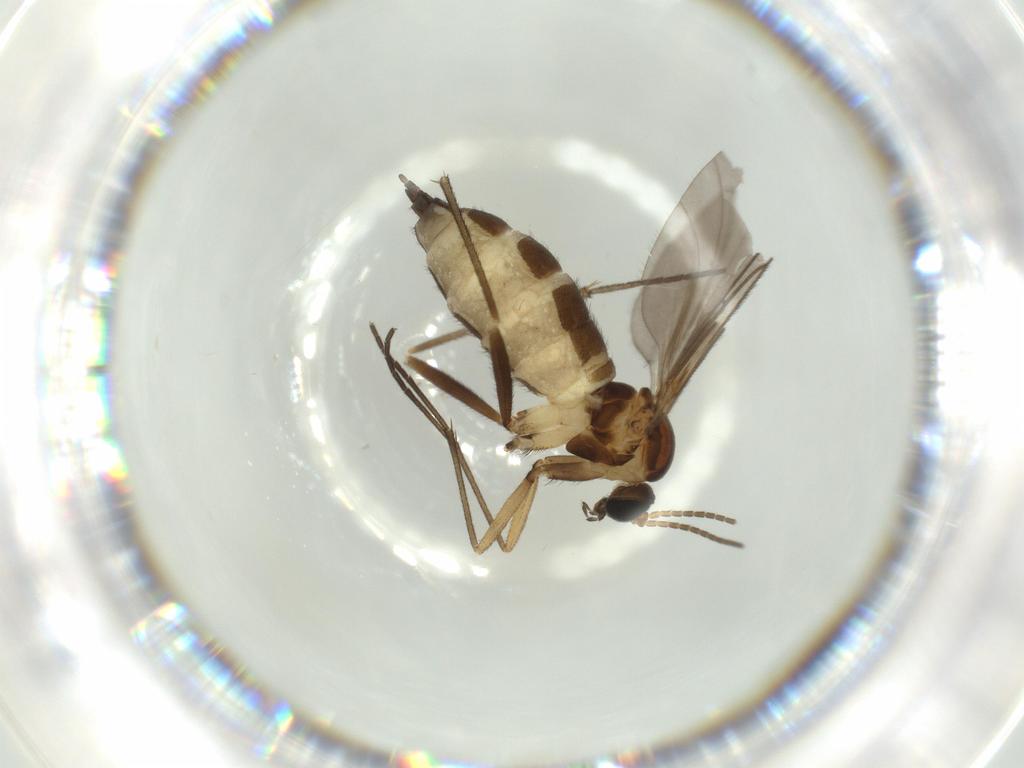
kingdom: Animalia
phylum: Arthropoda
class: Insecta
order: Diptera
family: Sciaridae
